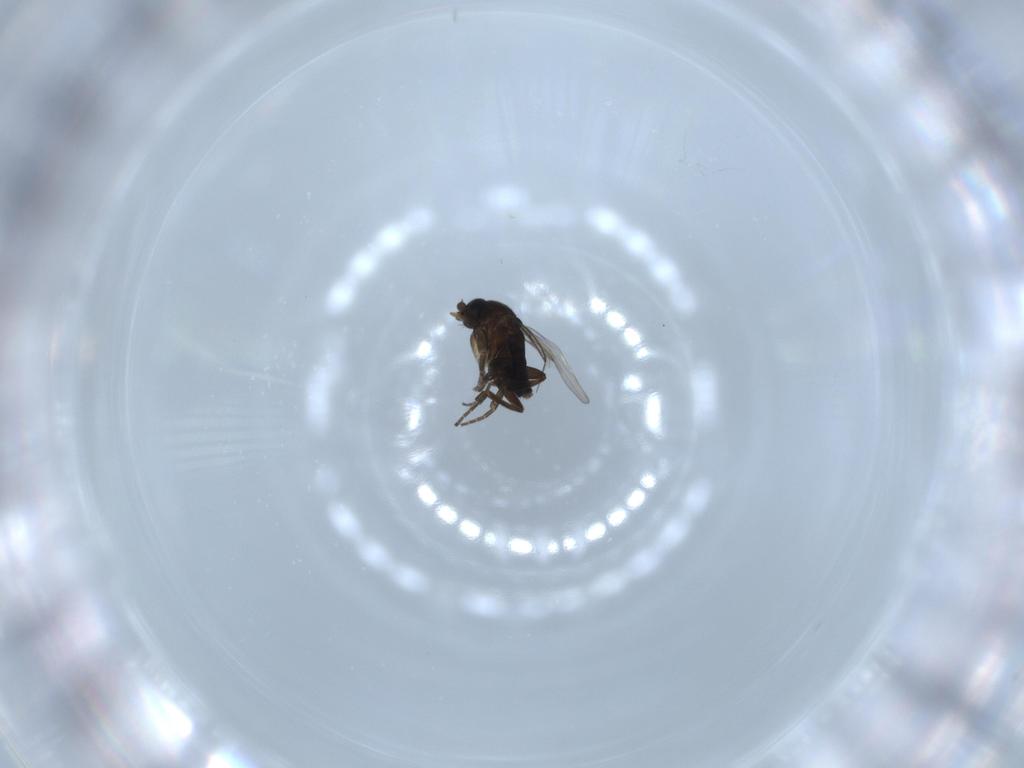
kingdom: Animalia
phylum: Arthropoda
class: Insecta
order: Diptera
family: Phoridae
